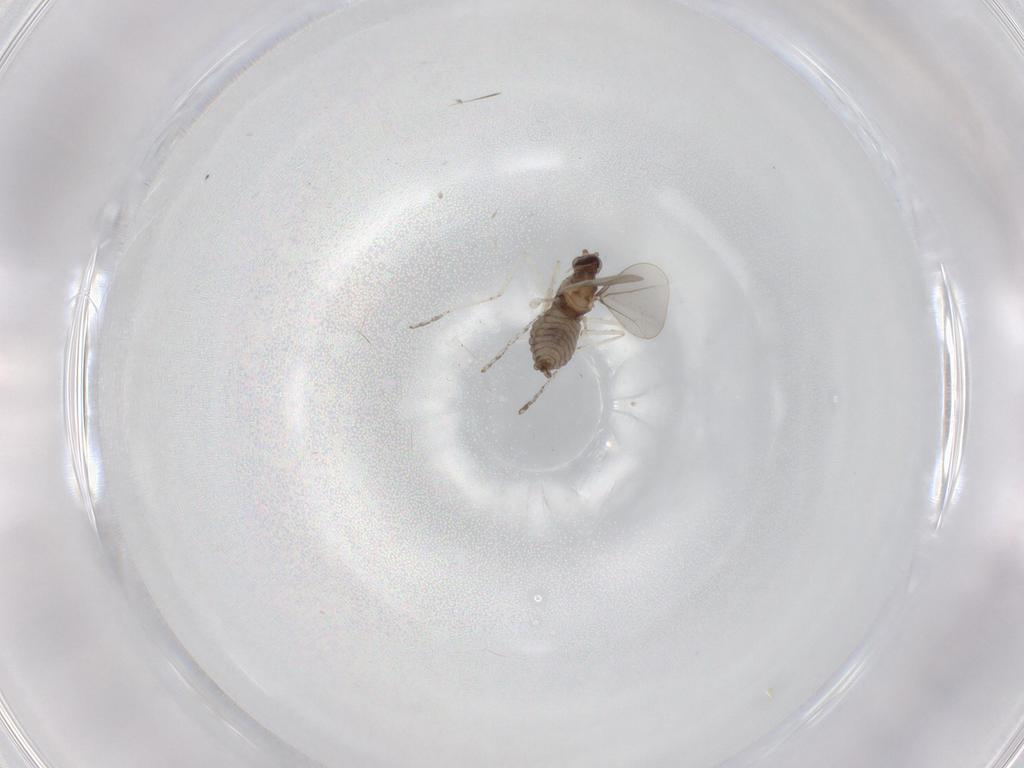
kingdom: Animalia
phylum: Arthropoda
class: Insecta
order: Diptera
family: Cecidomyiidae
